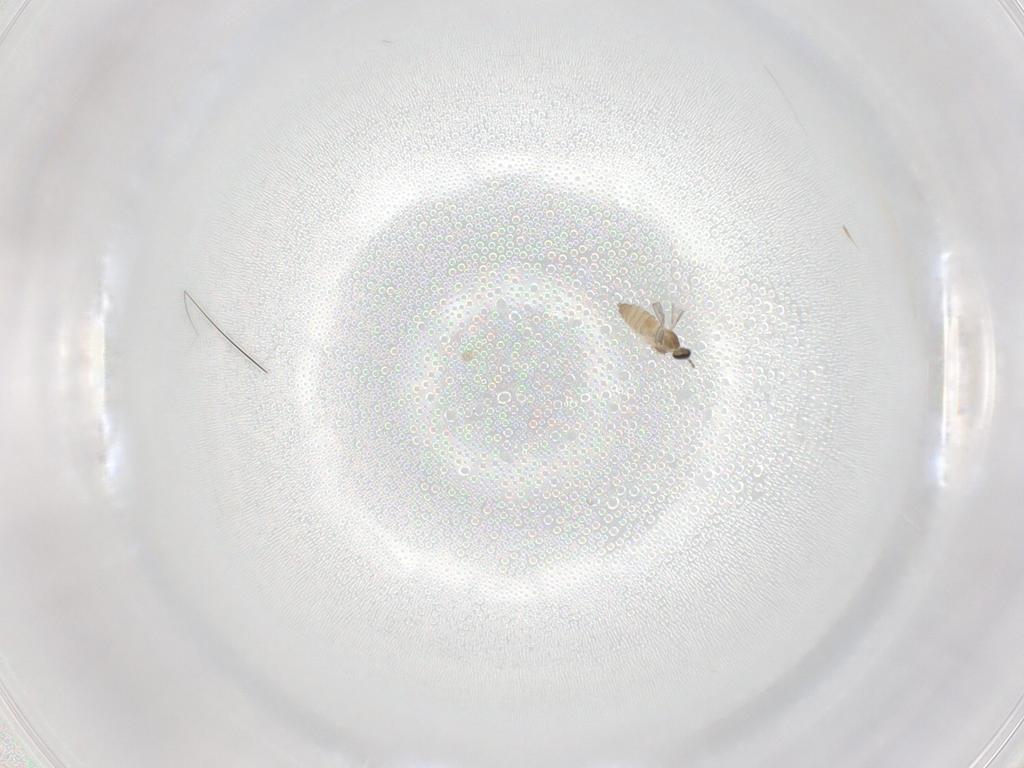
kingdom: Animalia
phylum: Arthropoda
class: Insecta
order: Diptera
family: Cecidomyiidae
